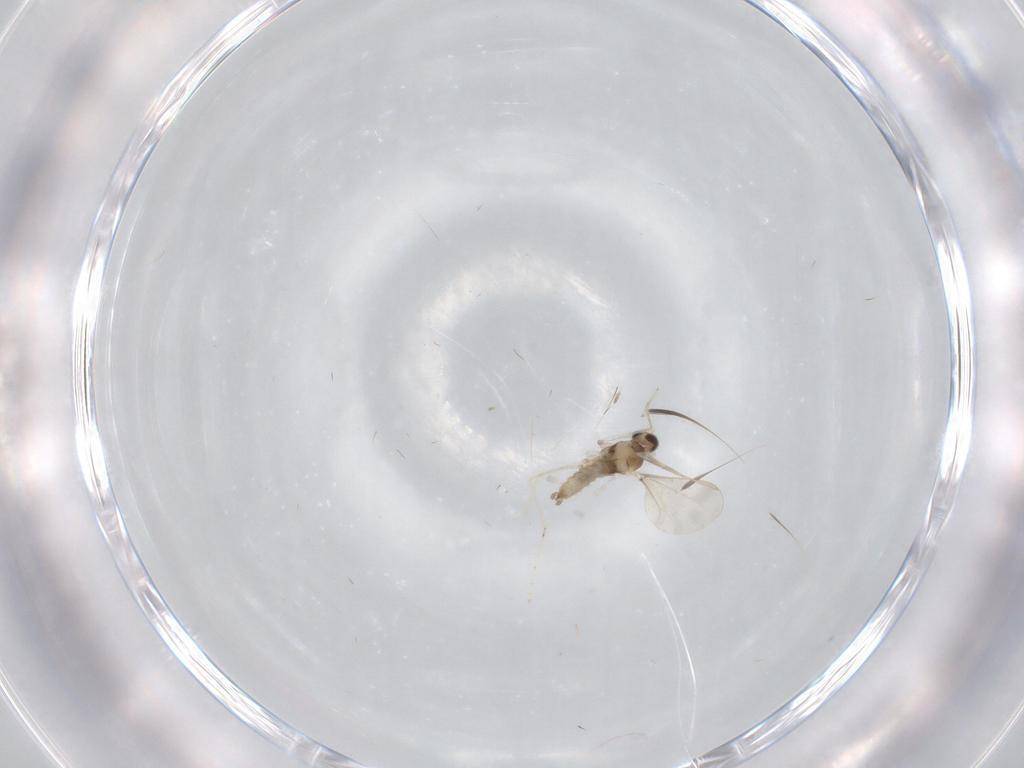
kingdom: Animalia
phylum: Arthropoda
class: Insecta
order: Diptera
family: Cecidomyiidae
